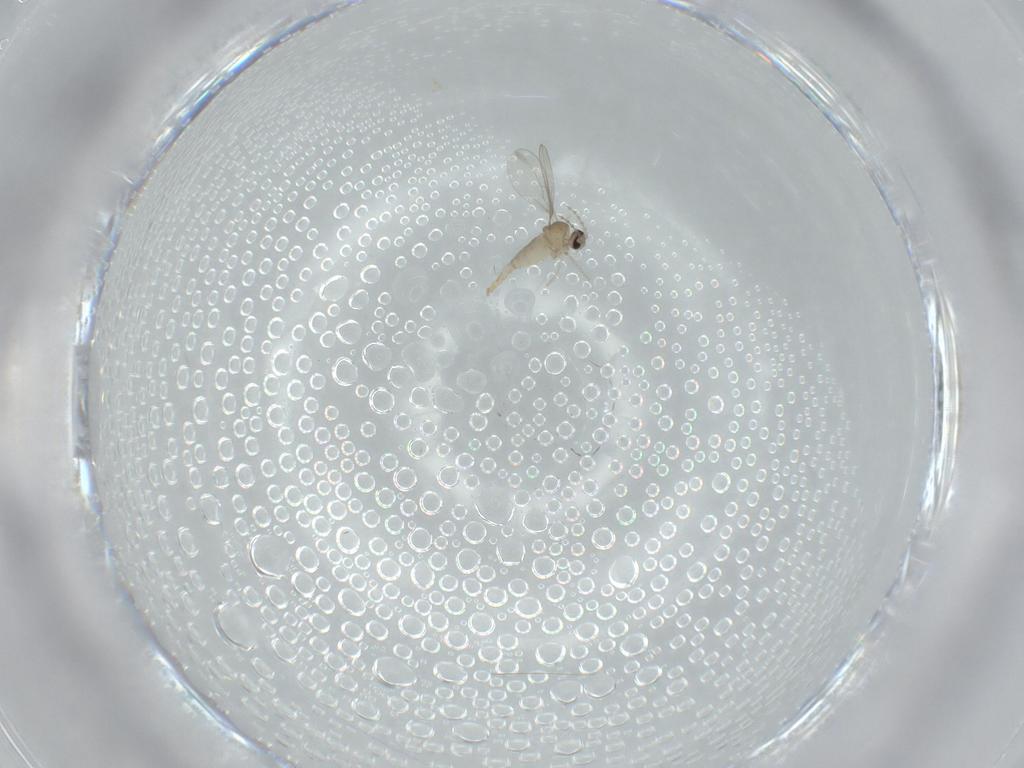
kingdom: Animalia
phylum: Arthropoda
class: Insecta
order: Diptera
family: Cecidomyiidae
